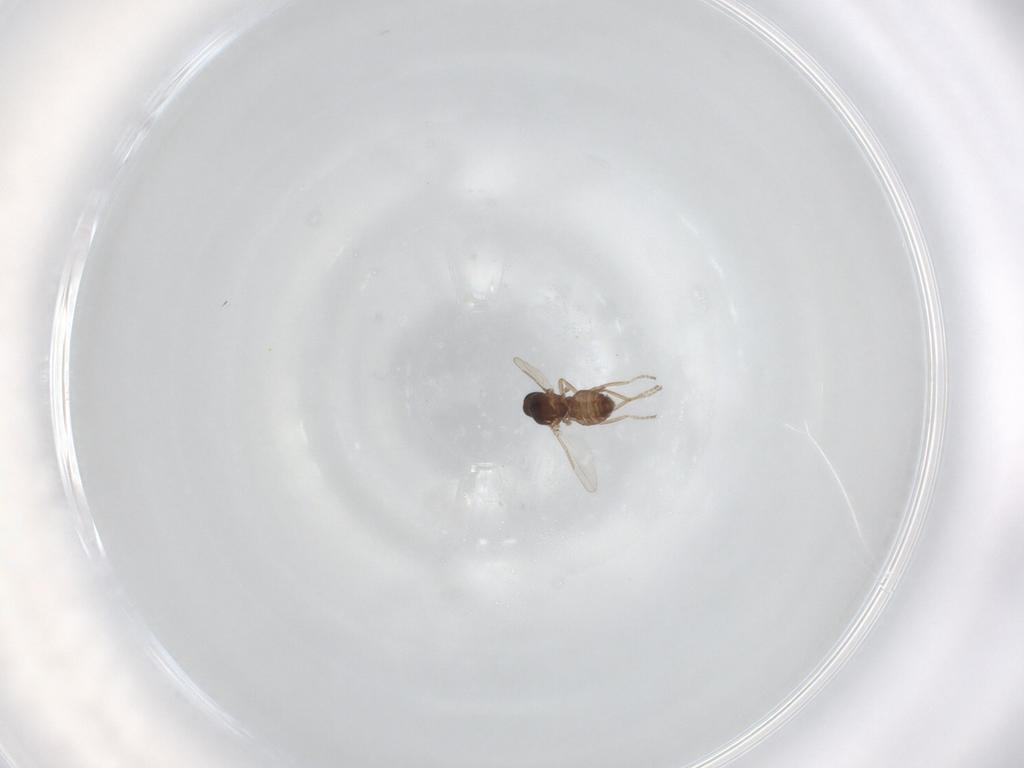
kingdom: Animalia
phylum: Arthropoda
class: Insecta
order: Diptera
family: Ceratopogonidae
